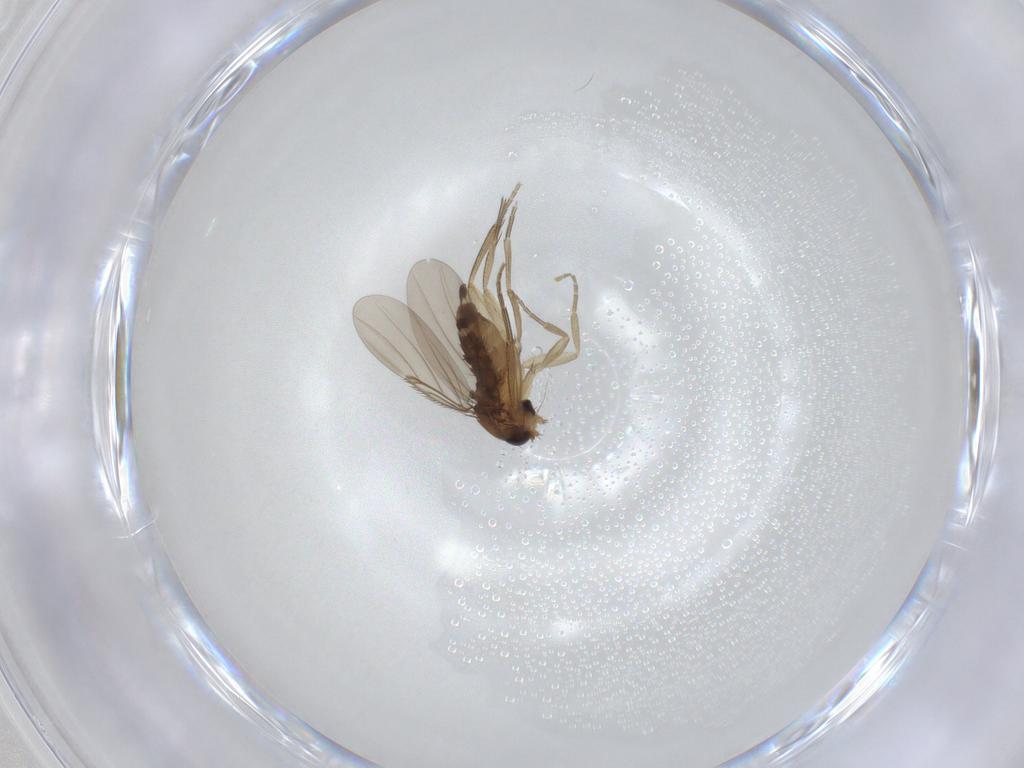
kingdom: Animalia
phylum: Arthropoda
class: Insecta
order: Diptera
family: Phoridae
